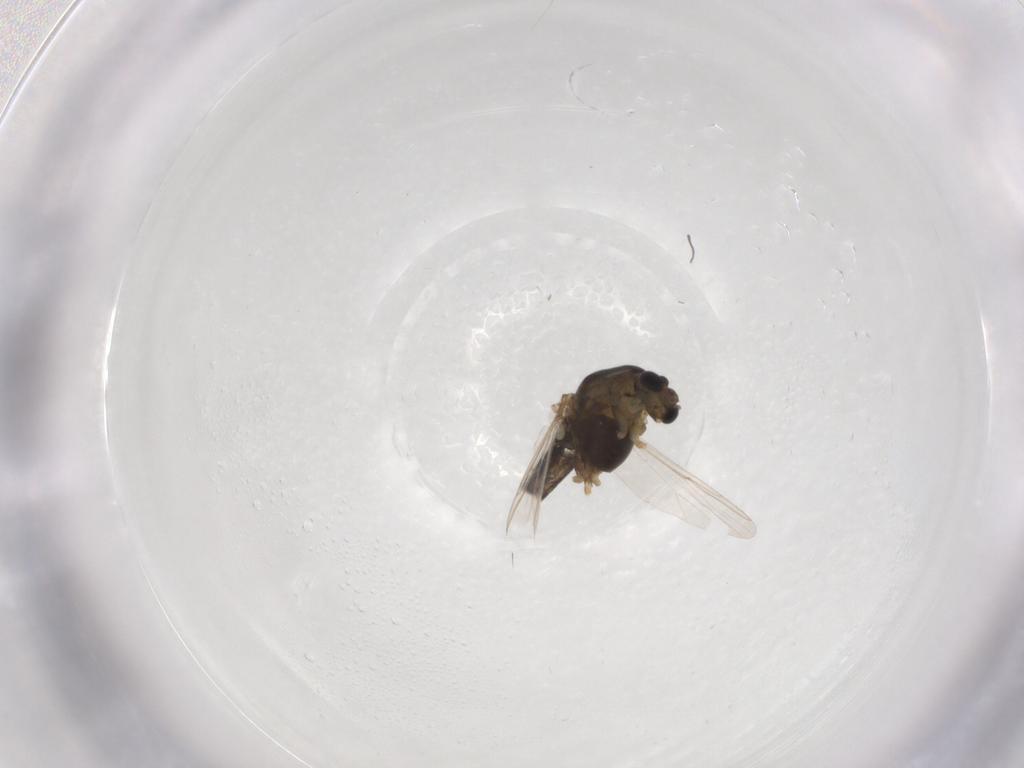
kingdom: Animalia
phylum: Arthropoda
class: Insecta
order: Diptera
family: Chironomidae
